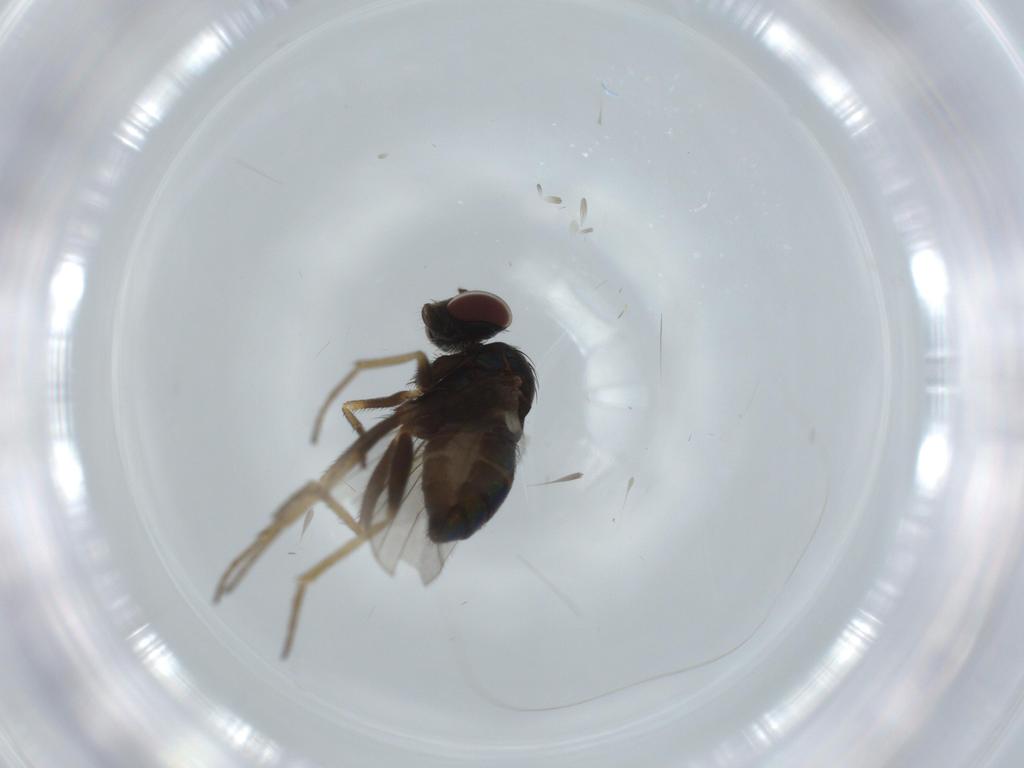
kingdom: Animalia
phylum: Arthropoda
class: Insecta
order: Diptera
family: Dolichopodidae
